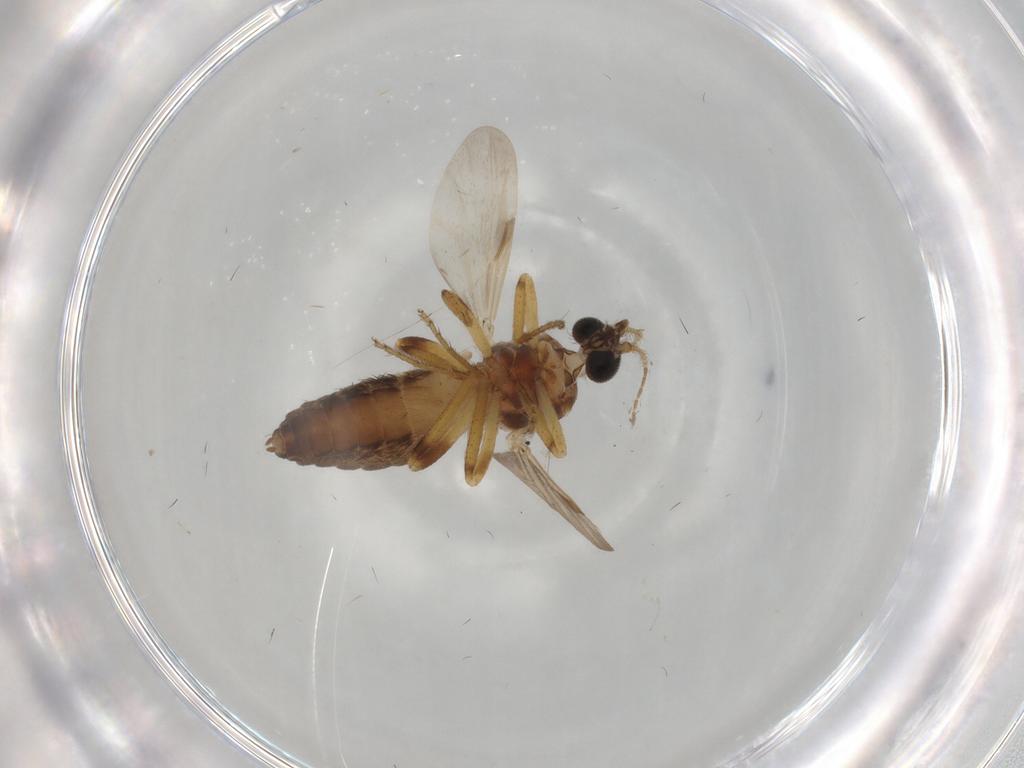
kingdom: Animalia
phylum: Arthropoda
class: Insecta
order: Diptera
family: Ceratopogonidae
